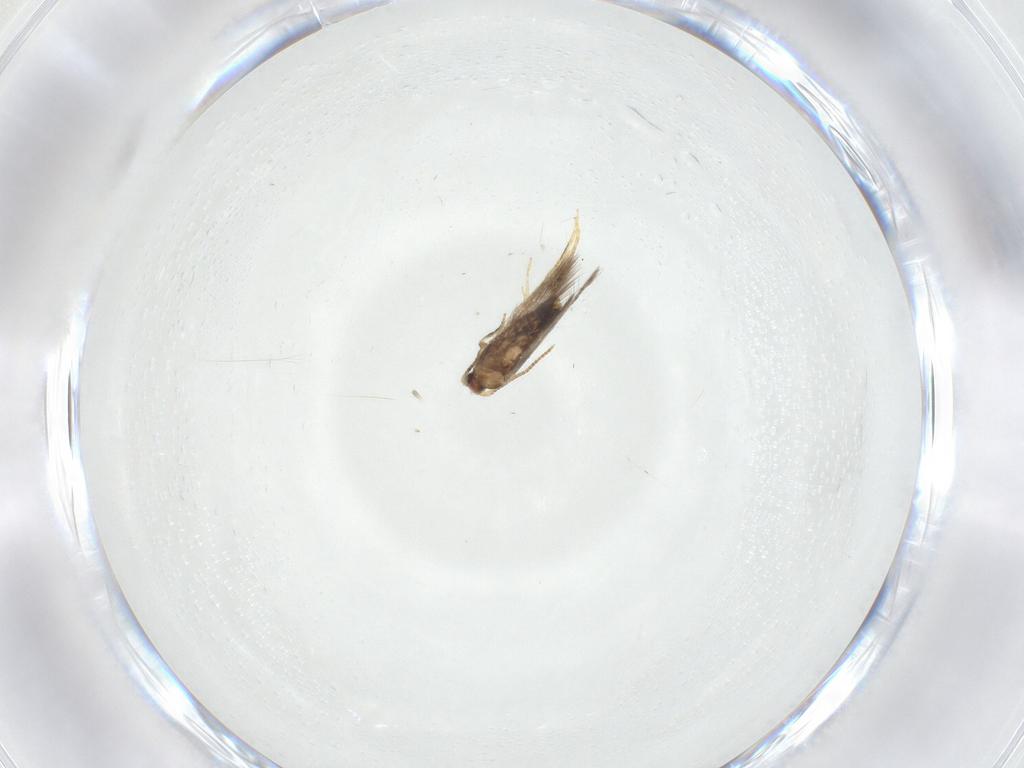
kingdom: Animalia
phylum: Arthropoda
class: Insecta
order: Lepidoptera
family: Nepticulidae
